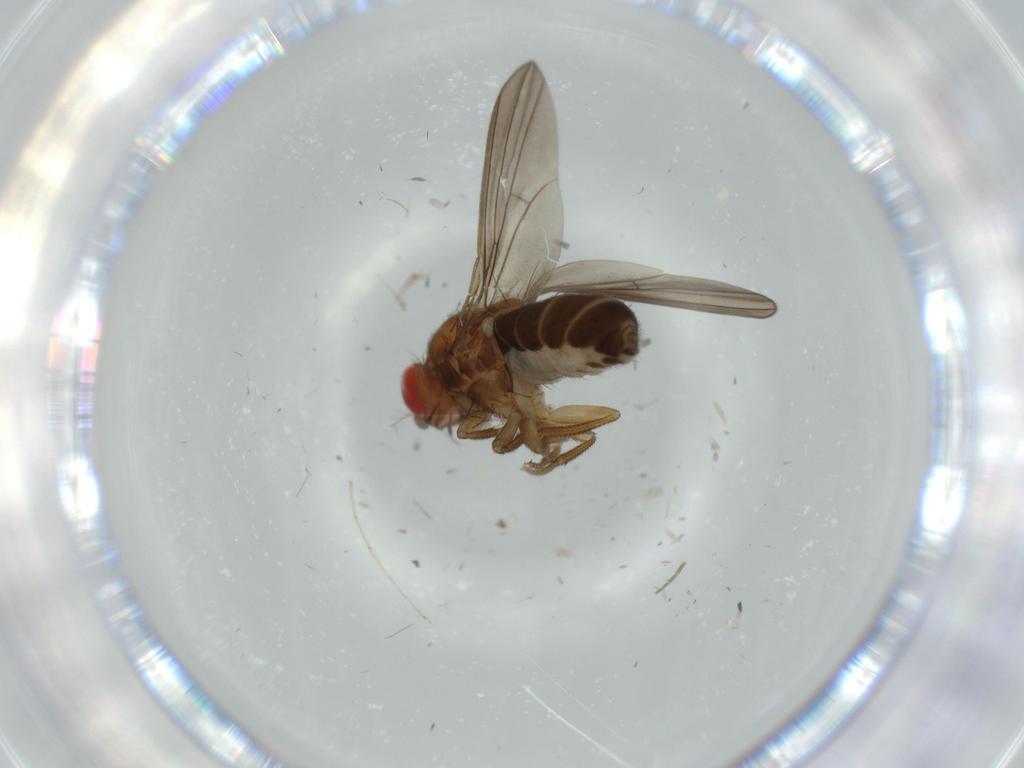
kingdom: Animalia
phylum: Arthropoda
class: Insecta
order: Diptera
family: Drosophilidae
